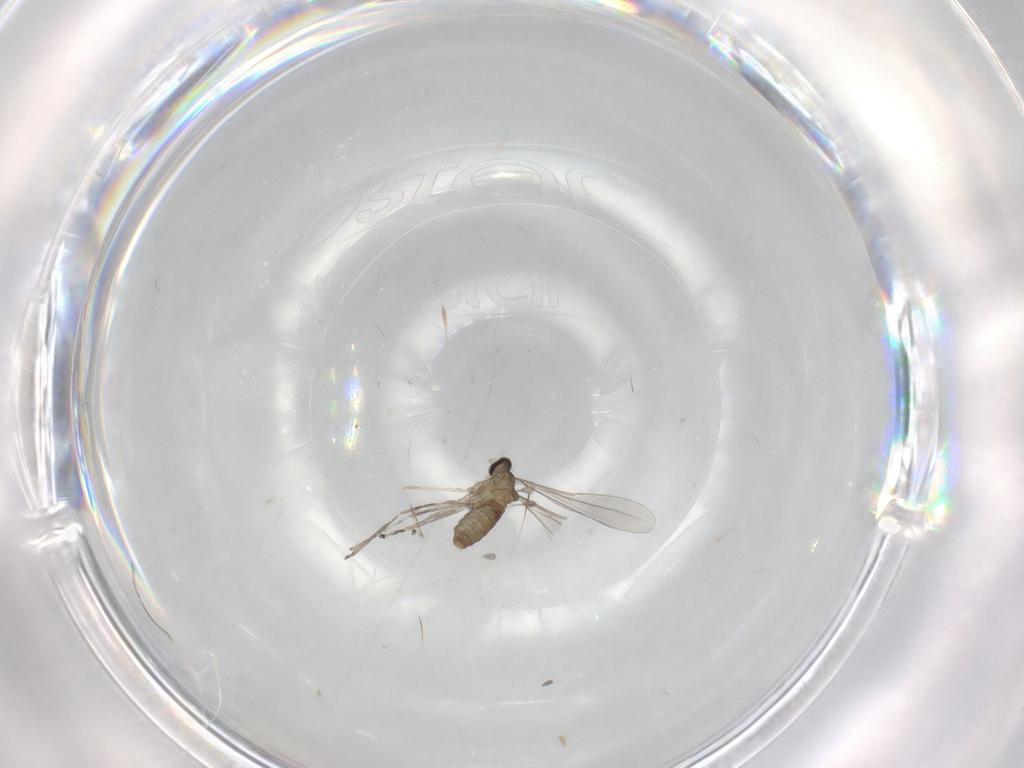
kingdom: Animalia
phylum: Arthropoda
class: Insecta
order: Diptera
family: Cecidomyiidae
